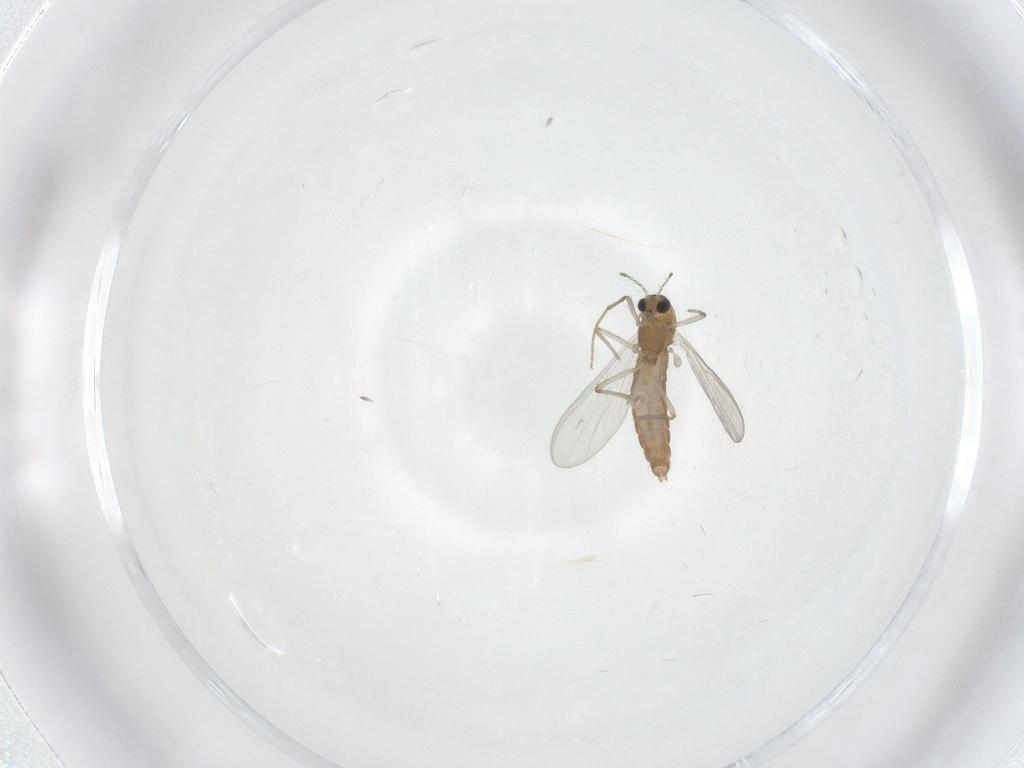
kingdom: Animalia
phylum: Arthropoda
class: Insecta
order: Diptera
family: Chironomidae
